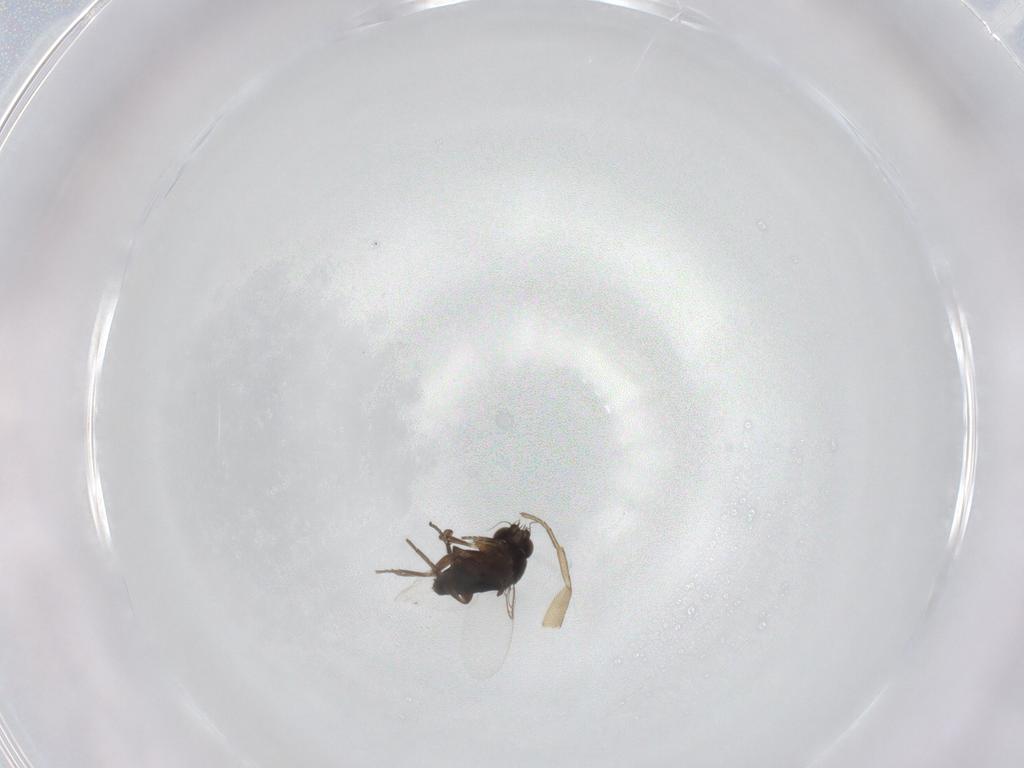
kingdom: Animalia
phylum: Arthropoda
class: Insecta
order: Diptera
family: Phoridae
